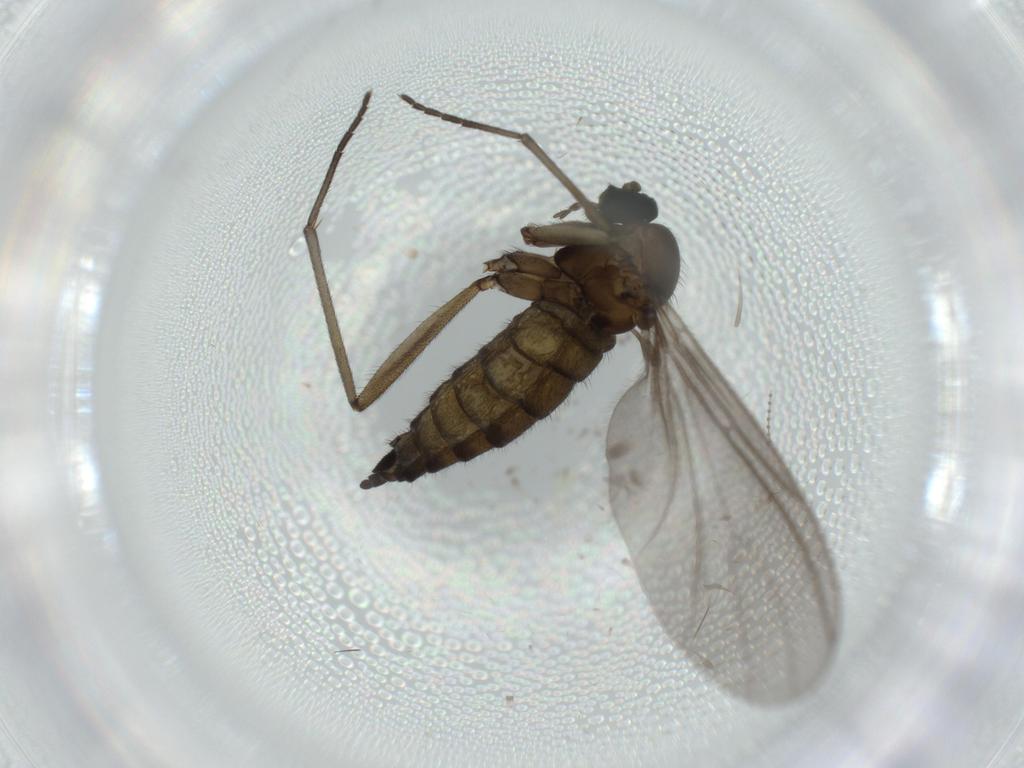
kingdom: Animalia
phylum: Arthropoda
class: Insecta
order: Diptera
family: Sciaridae
